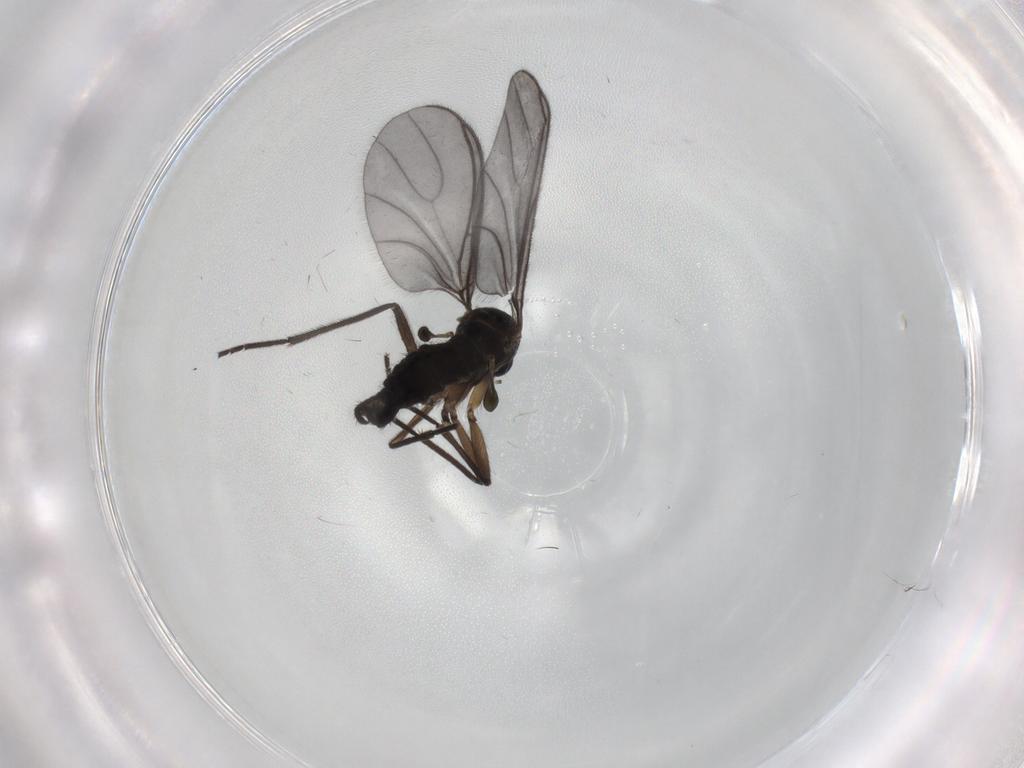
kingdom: Animalia
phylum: Arthropoda
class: Insecta
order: Diptera
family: Sciaridae
